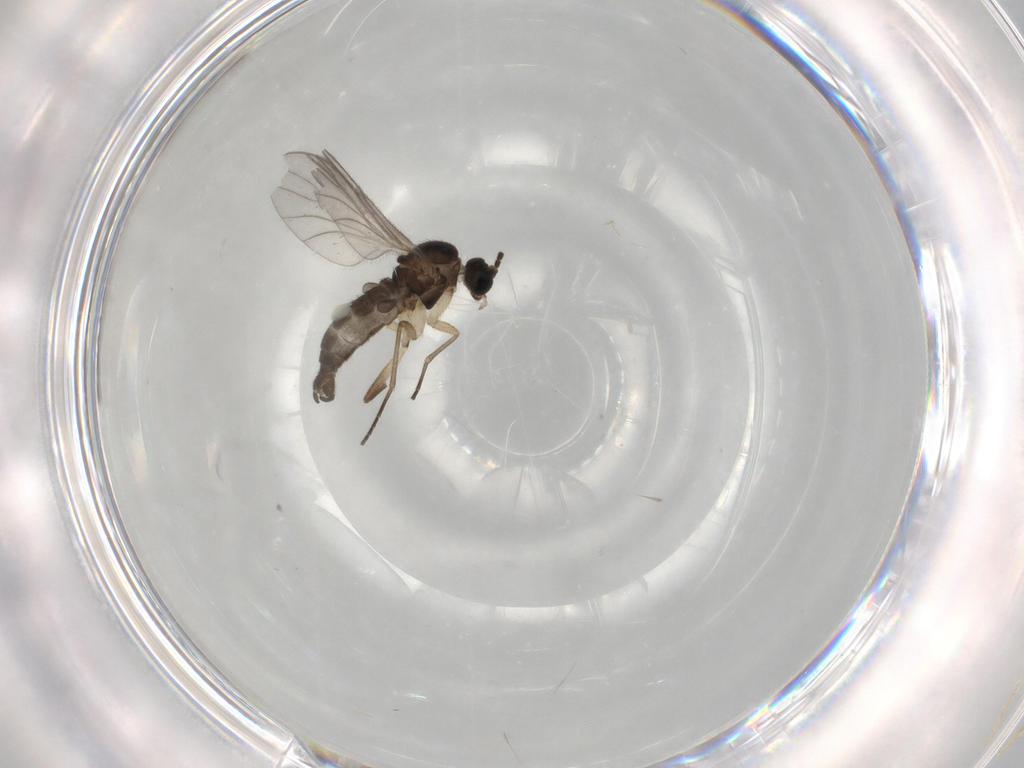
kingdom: Animalia
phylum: Arthropoda
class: Insecta
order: Diptera
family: Sciaridae
